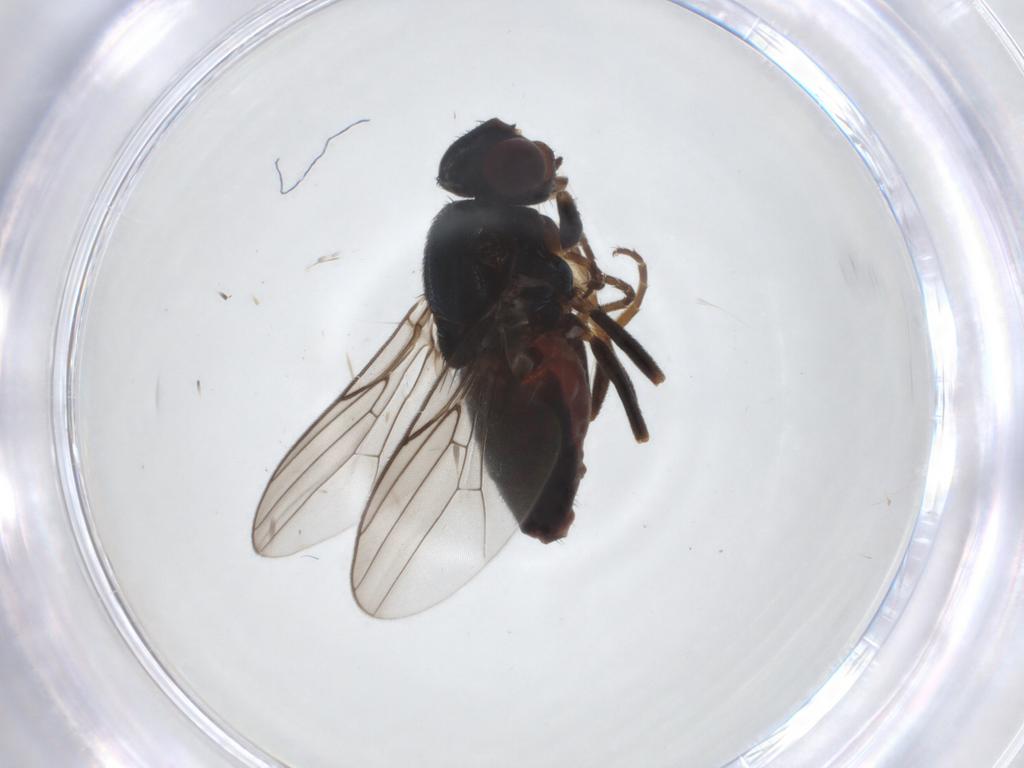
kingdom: Animalia
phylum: Arthropoda
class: Insecta
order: Diptera
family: Chloropidae
